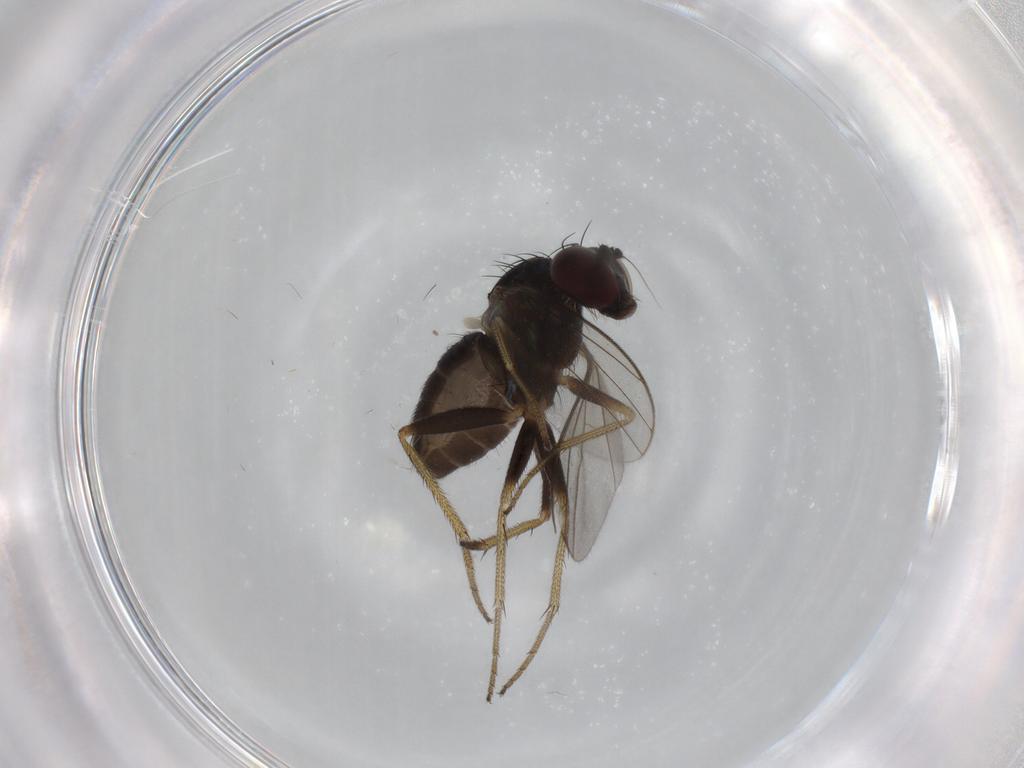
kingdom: Animalia
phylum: Arthropoda
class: Insecta
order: Diptera
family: Dolichopodidae
